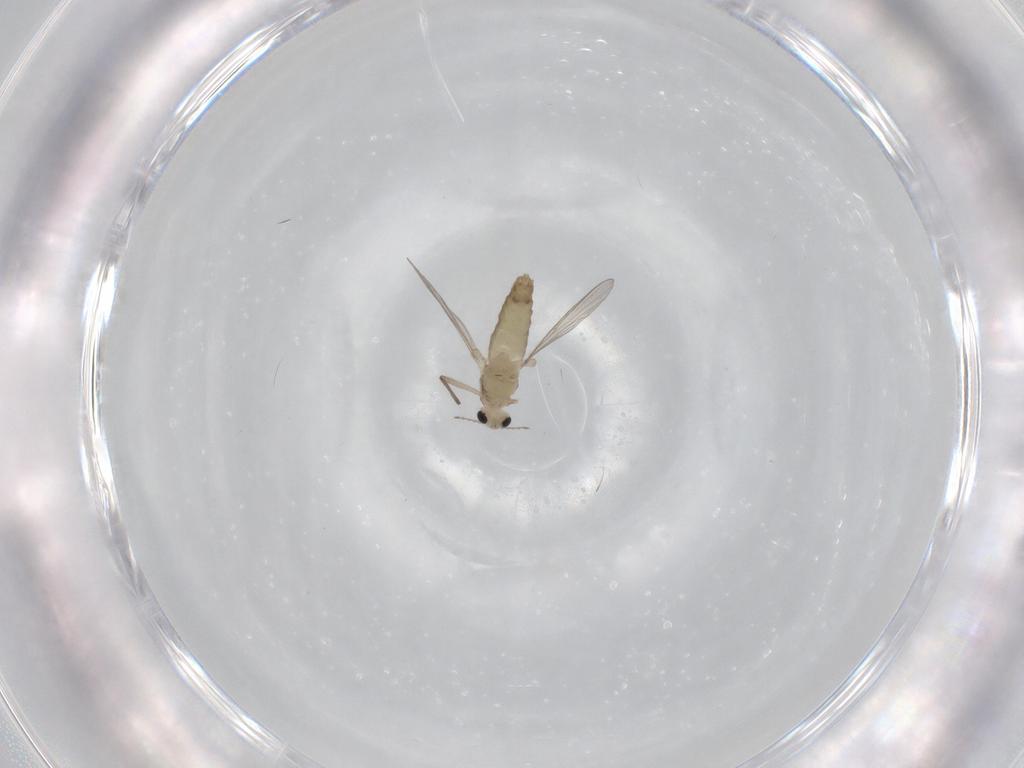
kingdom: Animalia
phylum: Arthropoda
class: Insecta
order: Diptera
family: Chironomidae
